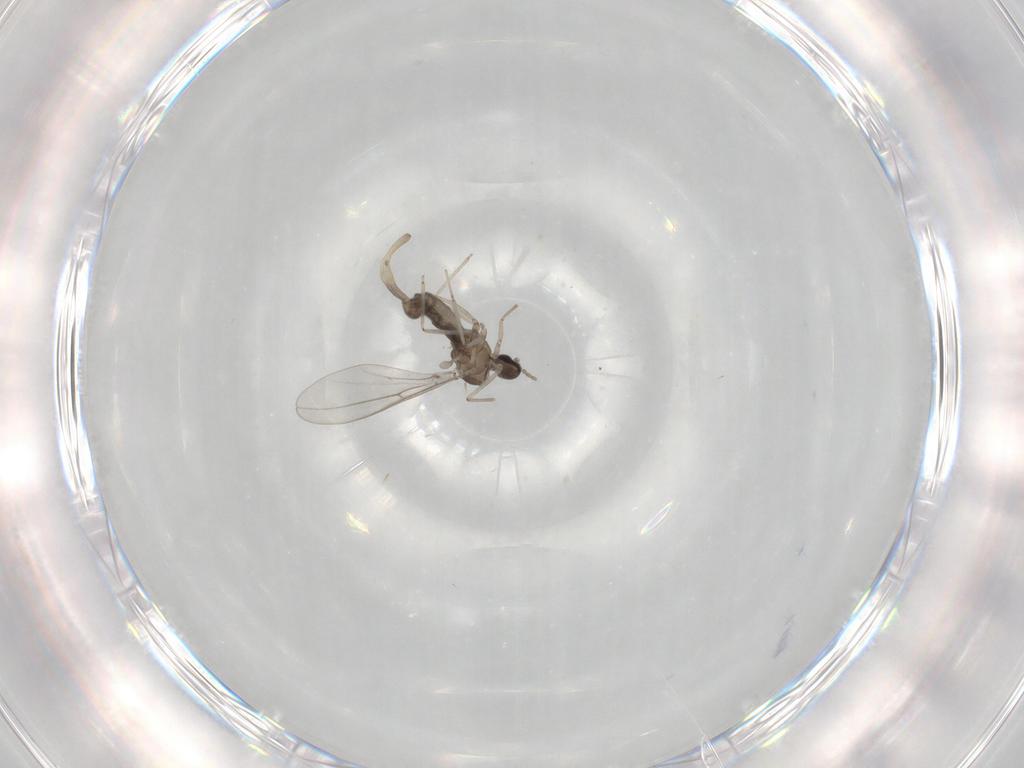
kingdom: Animalia
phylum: Arthropoda
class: Insecta
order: Diptera
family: Cecidomyiidae
